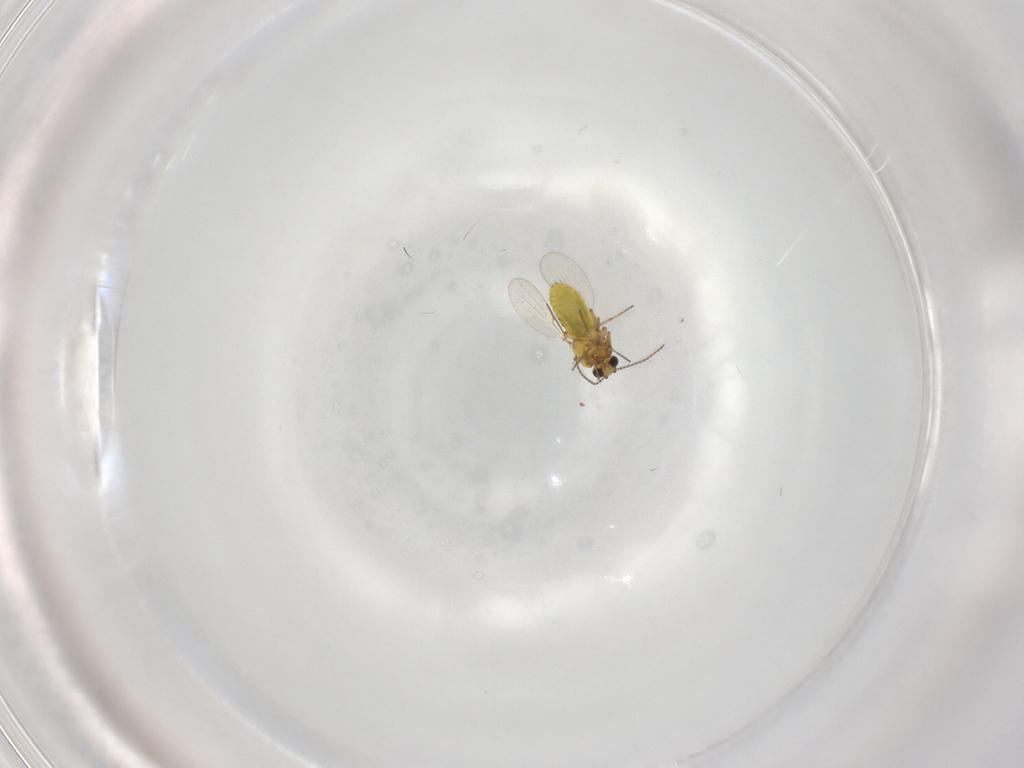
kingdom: Animalia
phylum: Arthropoda
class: Insecta
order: Diptera
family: Ceratopogonidae
